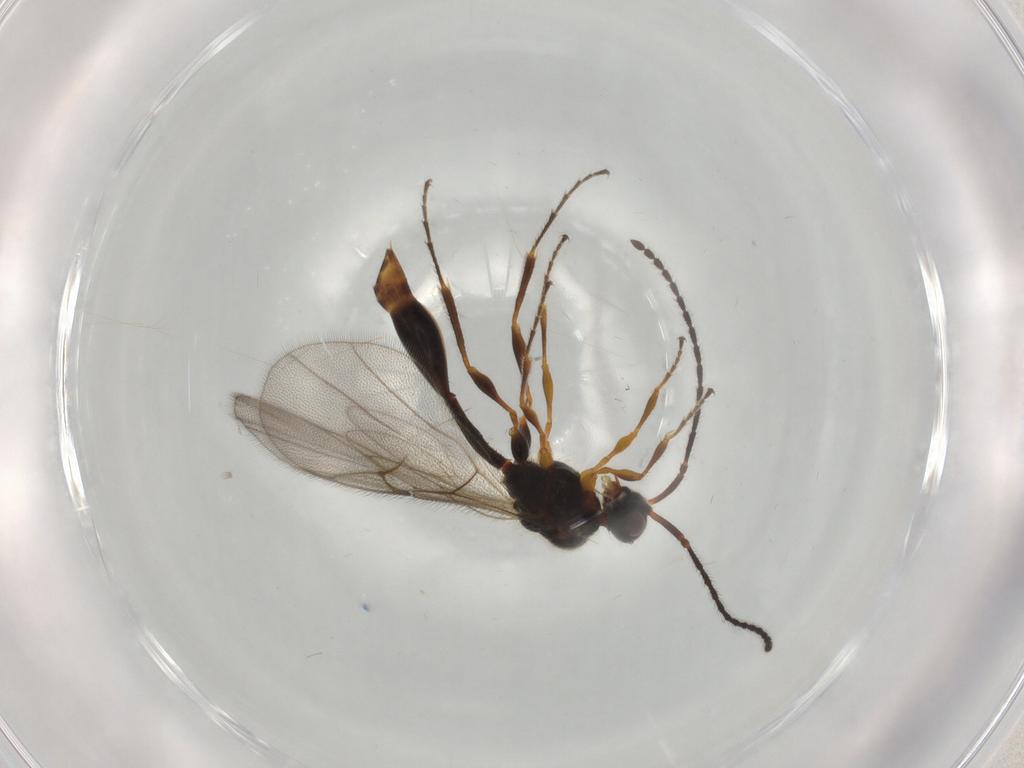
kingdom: Animalia
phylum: Arthropoda
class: Insecta
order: Hymenoptera
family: Diapriidae
